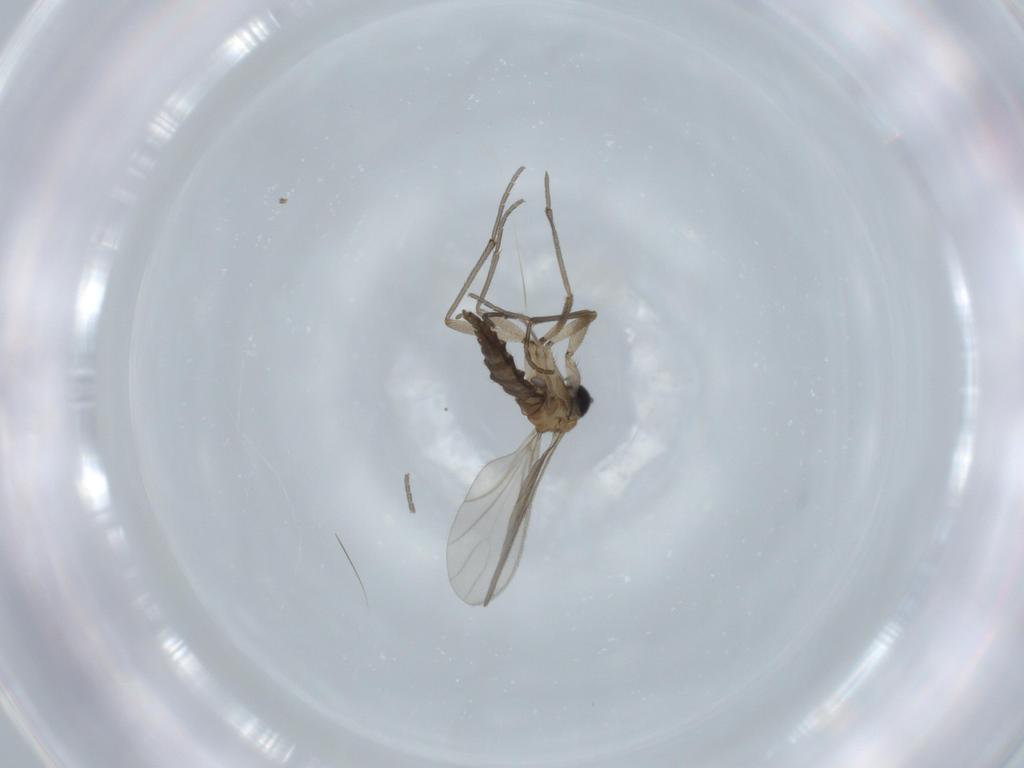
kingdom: Animalia
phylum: Arthropoda
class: Insecta
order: Diptera
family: Sciaridae
